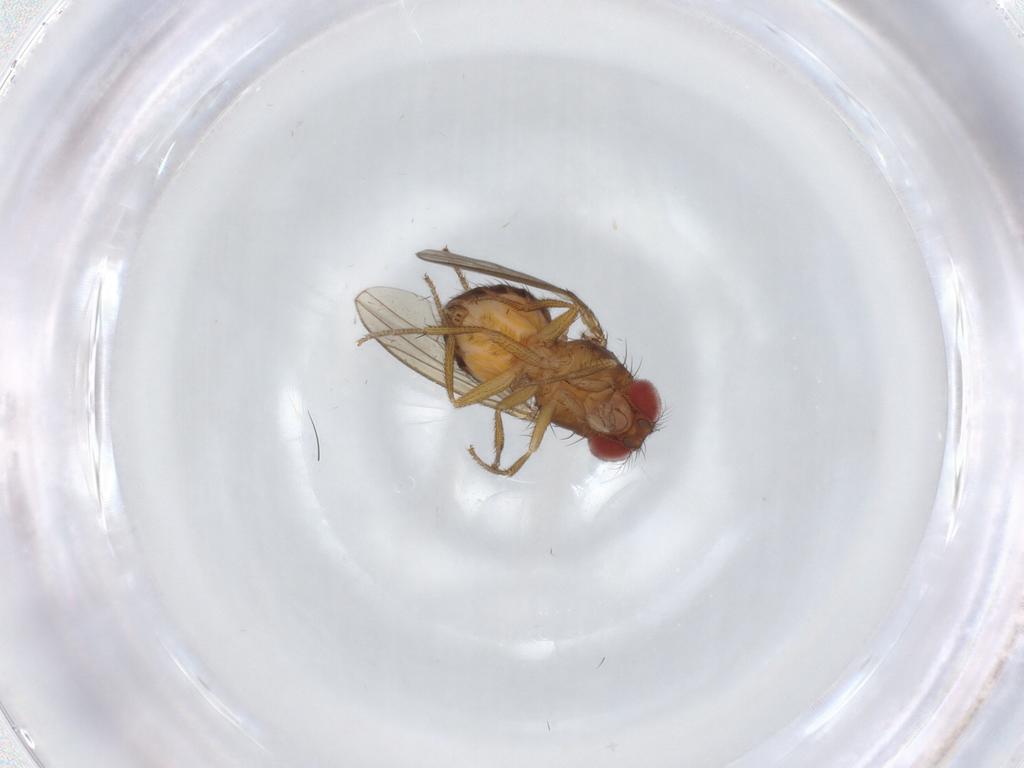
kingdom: Animalia
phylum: Arthropoda
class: Insecta
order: Diptera
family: Drosophilidae
